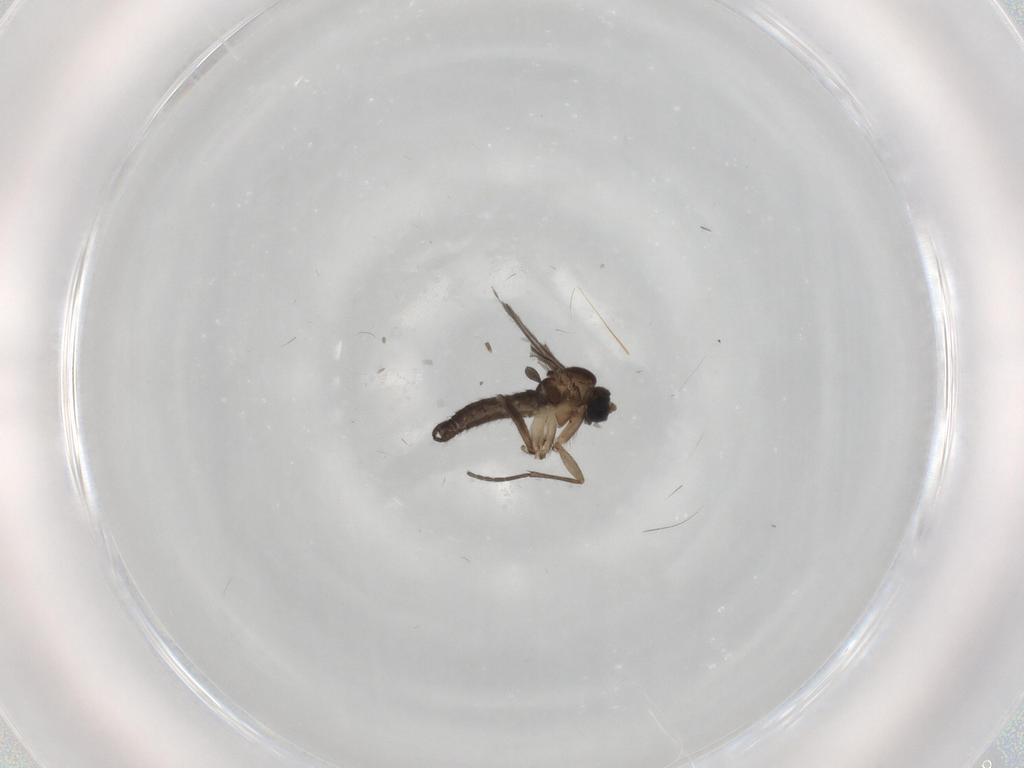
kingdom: Animalia
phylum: Arthropoda
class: Insecta
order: Diptera
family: Sciaridae
